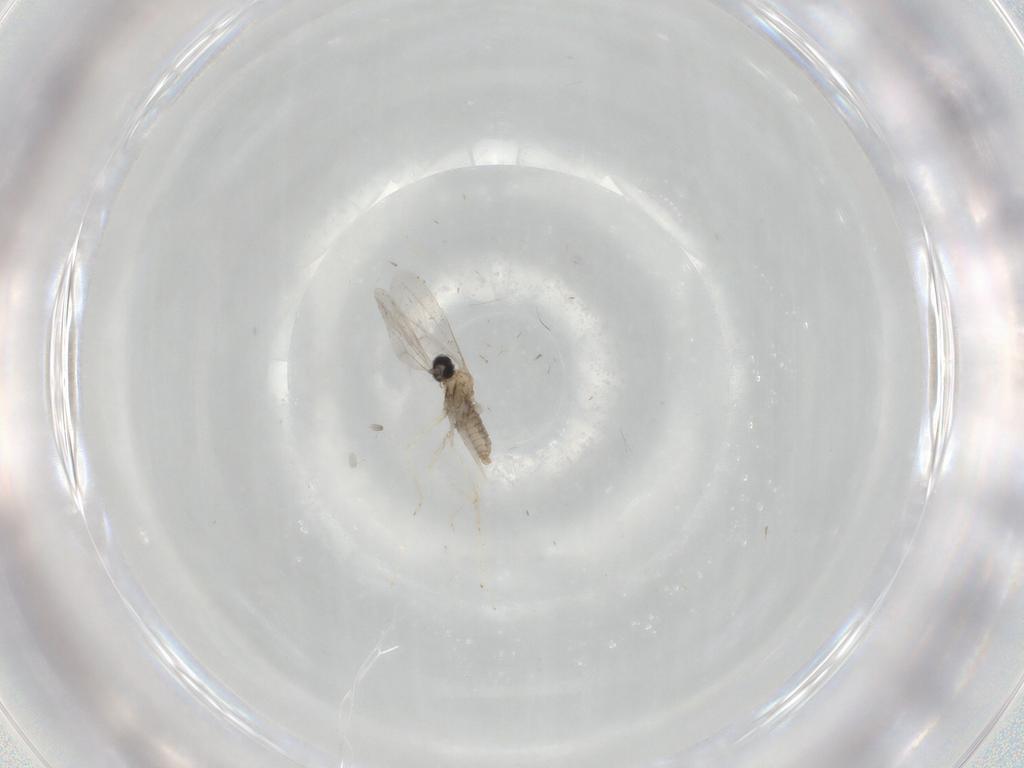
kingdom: Animalia
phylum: Arthropoda
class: Insecta
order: Diptera
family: Cecidomyiidae
